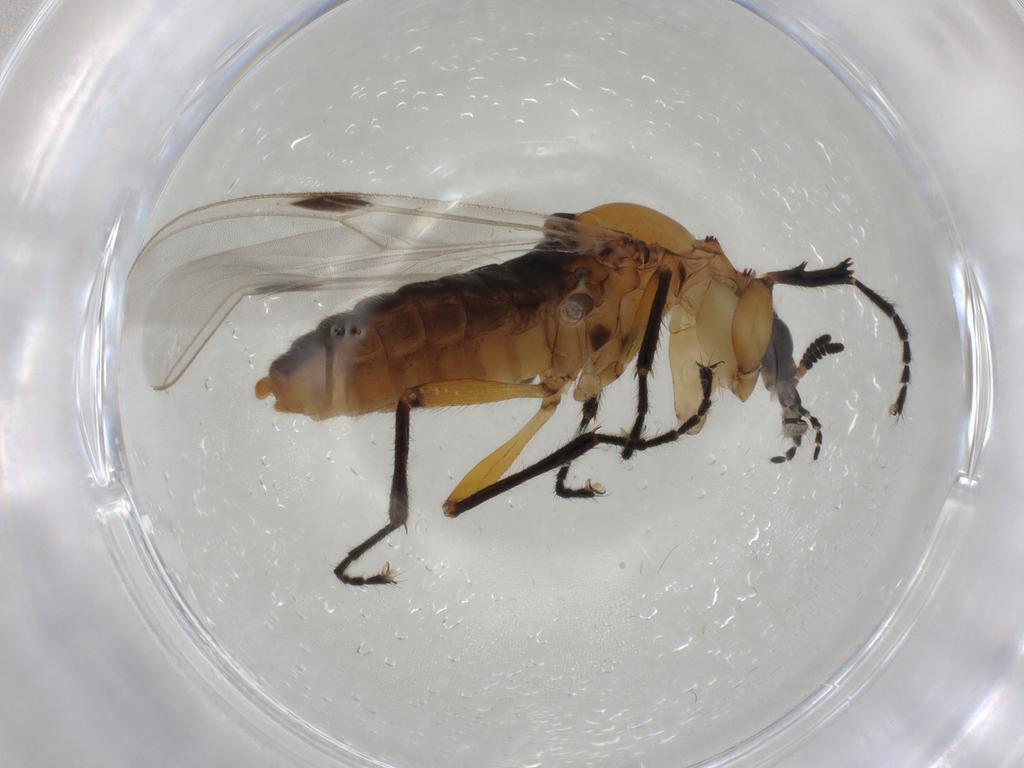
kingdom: Animalia
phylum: Arthropoda
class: Insecta
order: Diptera
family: Bibionidae
